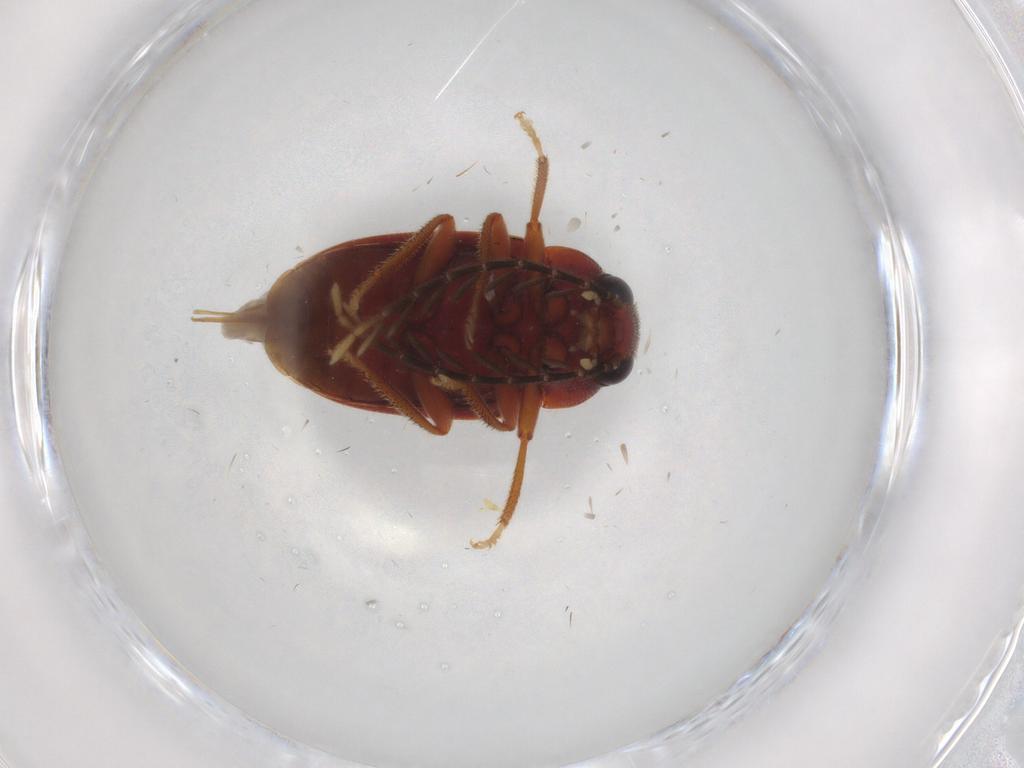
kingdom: Animalia
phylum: Arthropoda
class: Insecta
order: Coleoptera
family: Ptilodactylidae
